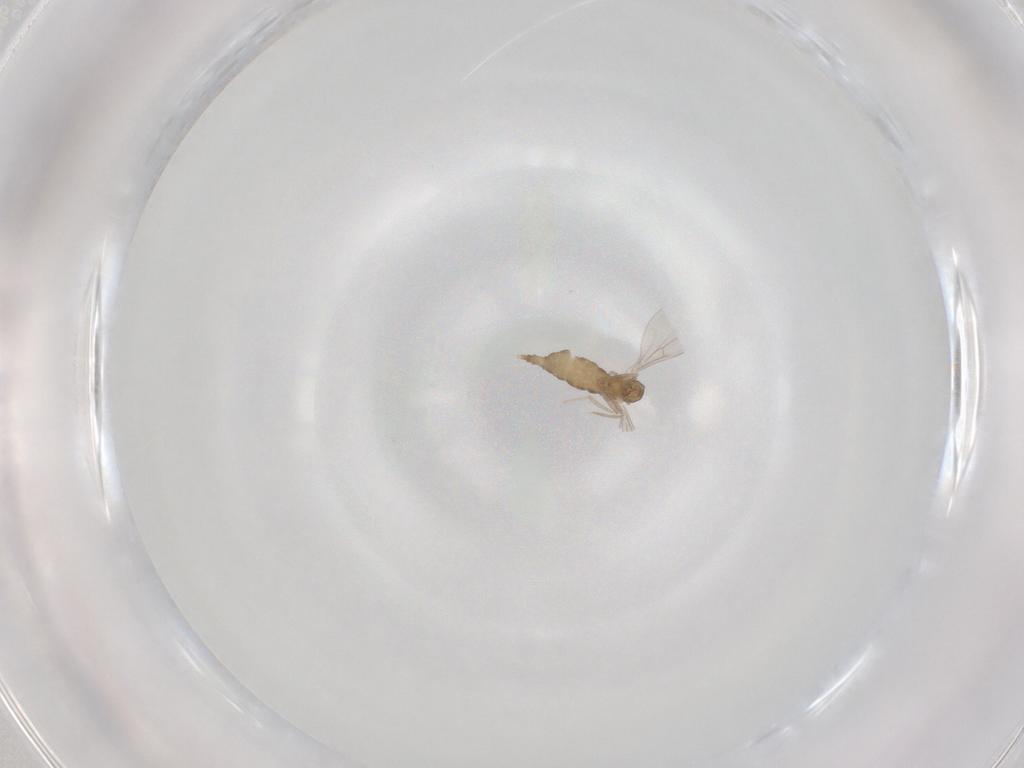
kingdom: Animalia
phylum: Arthropoda
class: Insecta
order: Diptera
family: Cecidomyiidae
